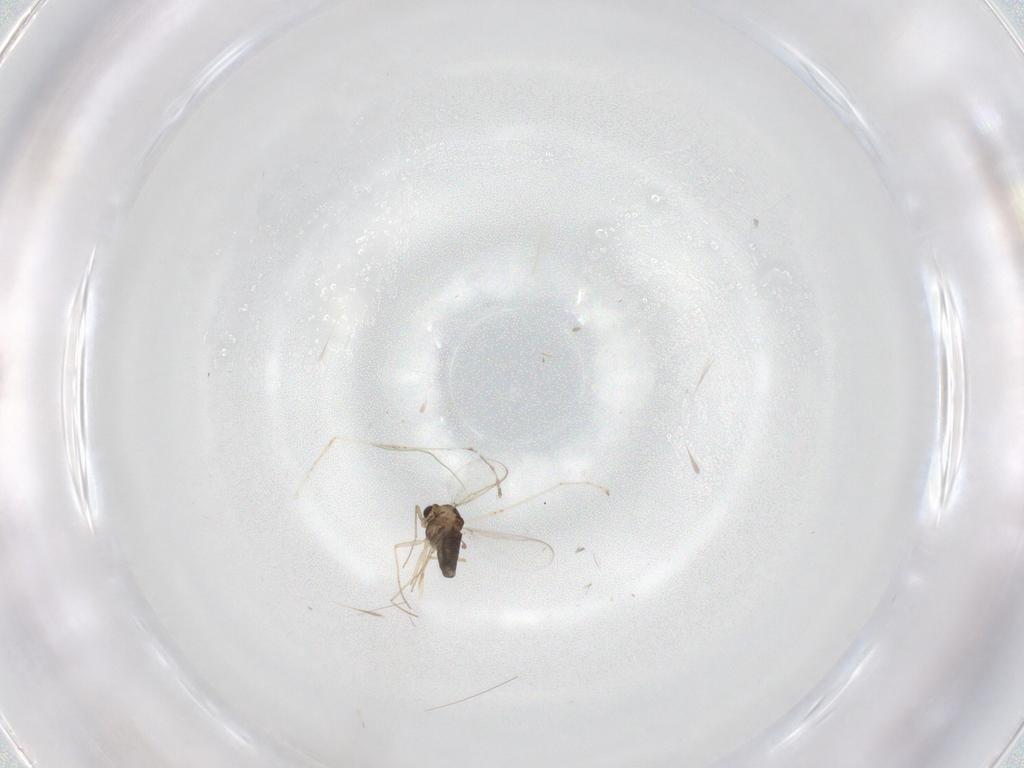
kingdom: Animalia
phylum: Arthropoda
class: Insecta
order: Diptera
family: Chironomidae
